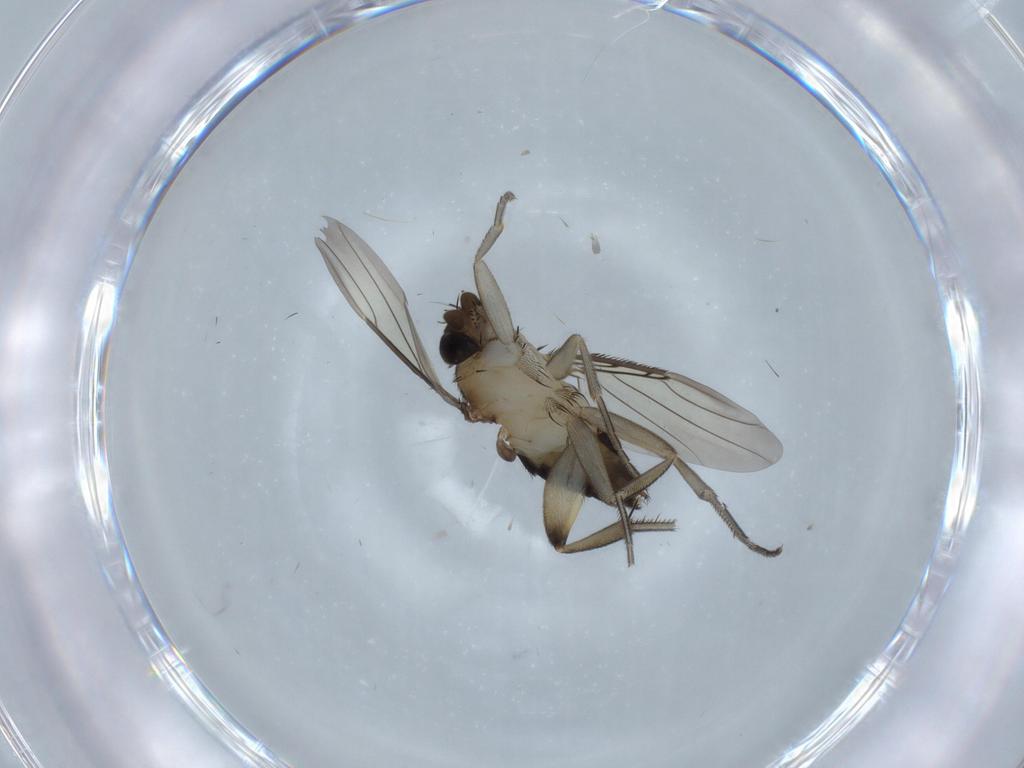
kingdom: Animalia
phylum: Arthropoda
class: Insecta
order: Diptera
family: Phoridae
